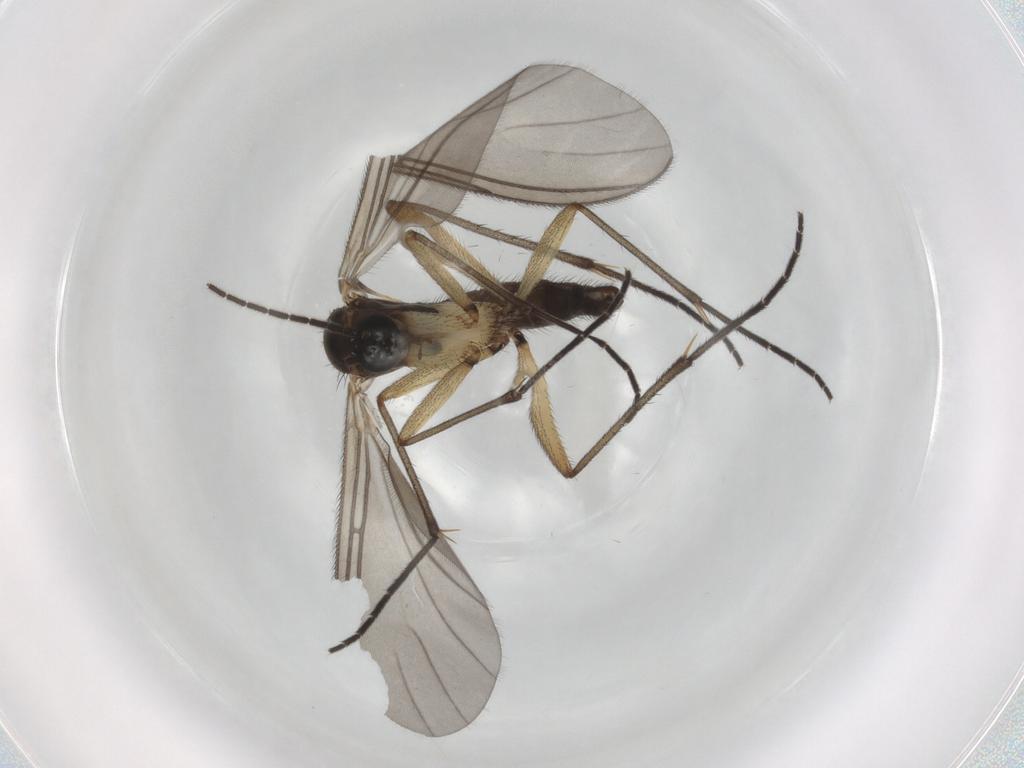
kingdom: Animalia
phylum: Arthropoda
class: Insecta
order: Diptera
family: Sciaridae
